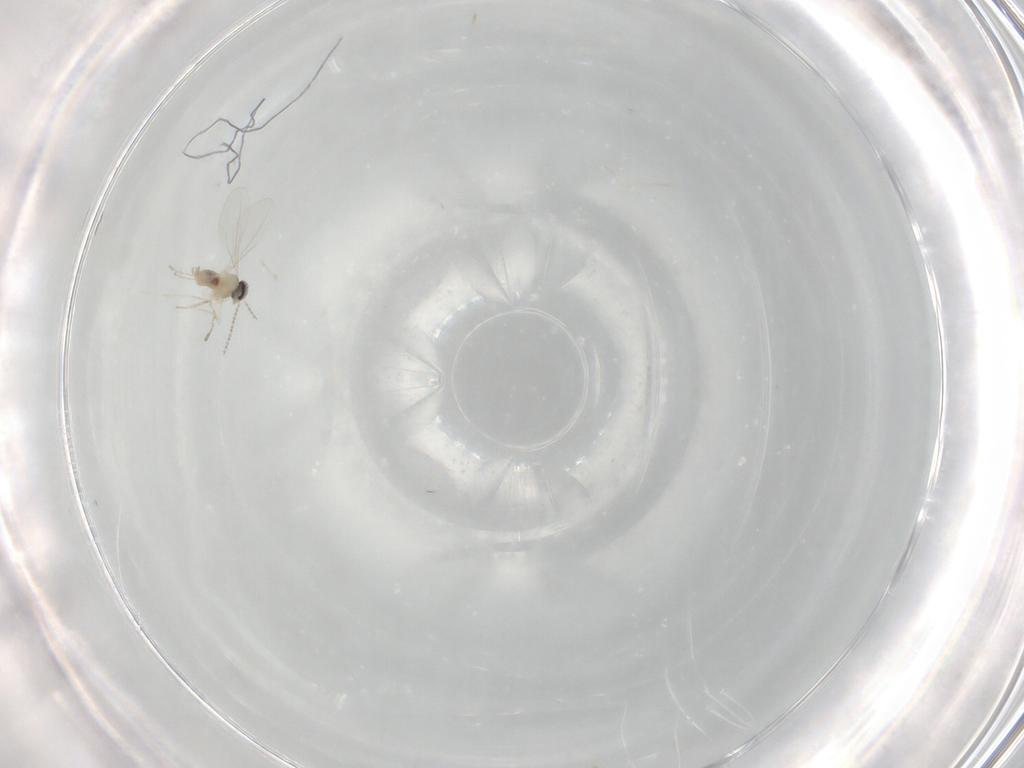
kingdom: Animalia
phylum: Arthropoda
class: Insecta
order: Diptera
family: Cecidomyiidae
